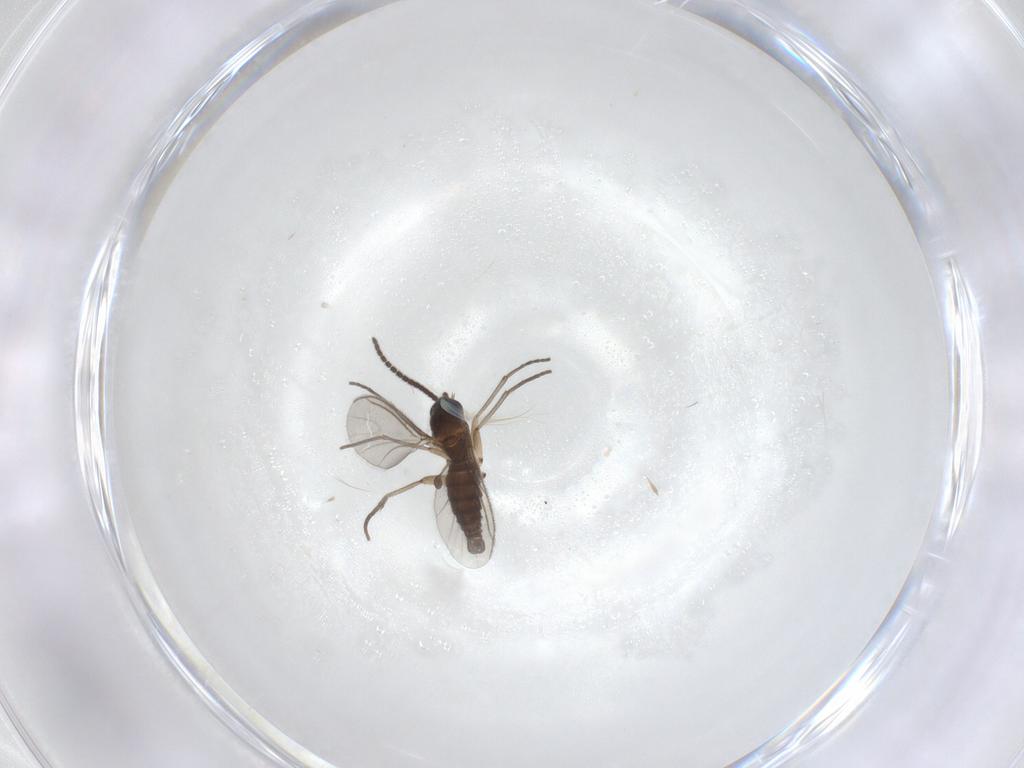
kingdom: Animalia
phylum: Arthropoda
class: Insecta
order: Diptera
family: Sciaridae
